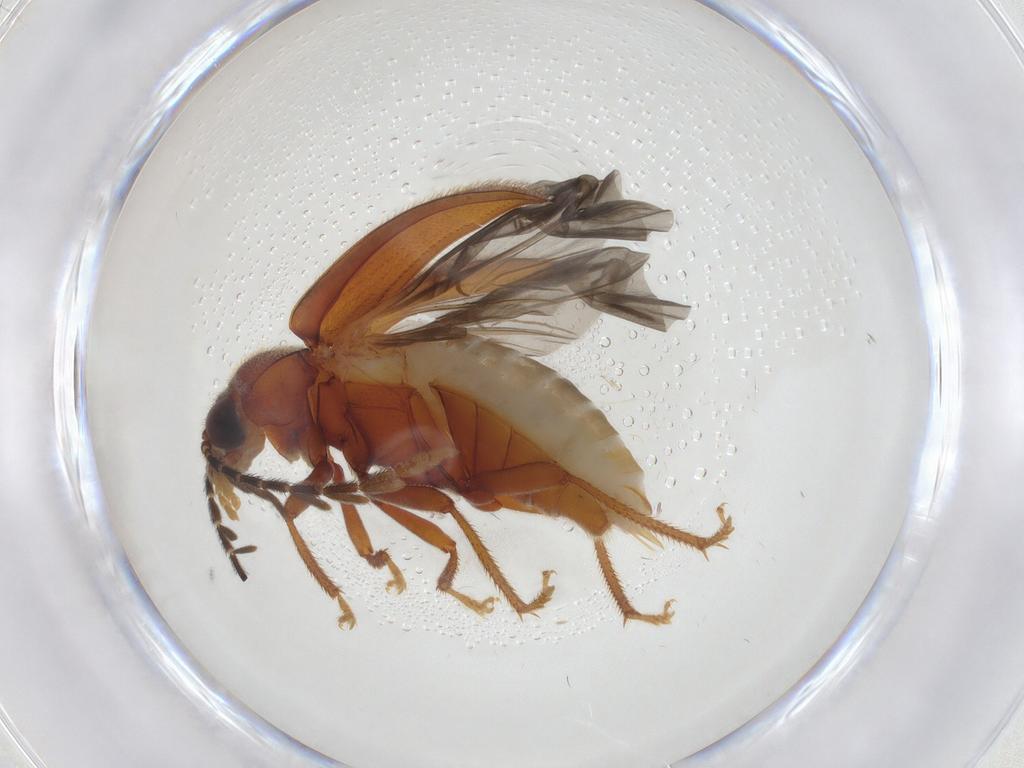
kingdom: Animalia
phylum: Arthropoda
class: Insecta
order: Coleoptera
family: Ptilodactylidae
